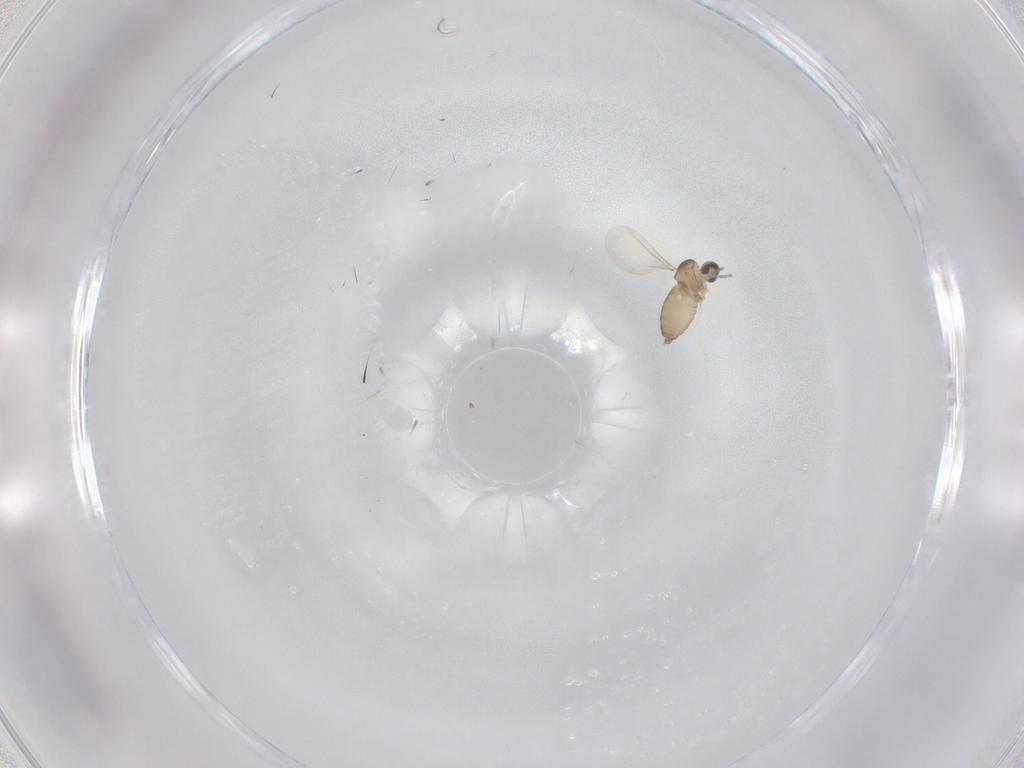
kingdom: Animalia
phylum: Arthropoda
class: Insecta
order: Diptera
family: Cecidomyiidae
